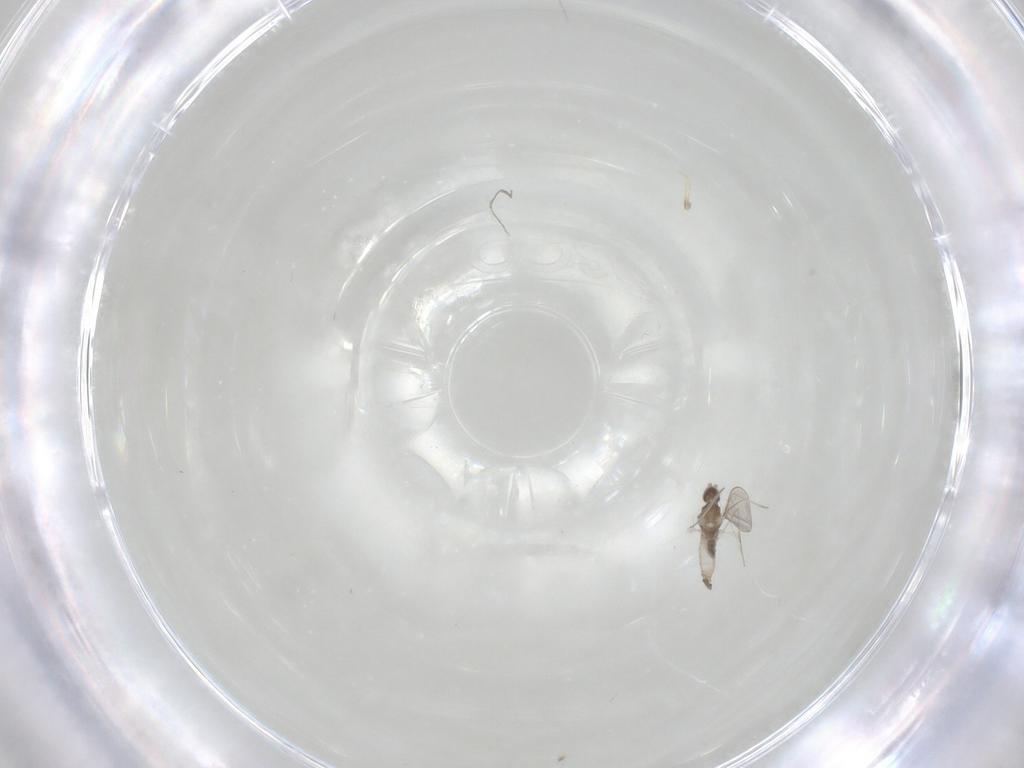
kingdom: Animalia
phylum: Arthropoda
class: Insecta
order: Diptera
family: Cecidomyiidae
